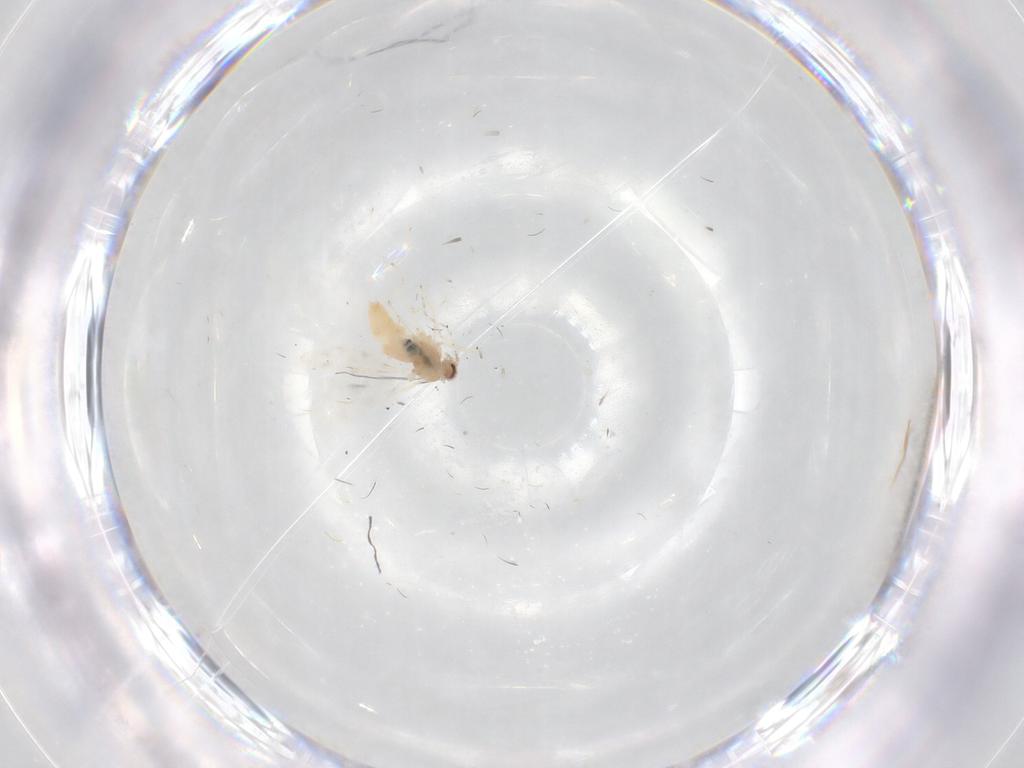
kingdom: Animalia
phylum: Arthropoda
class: Insecta
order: Diptera
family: Cecidomyiidae
